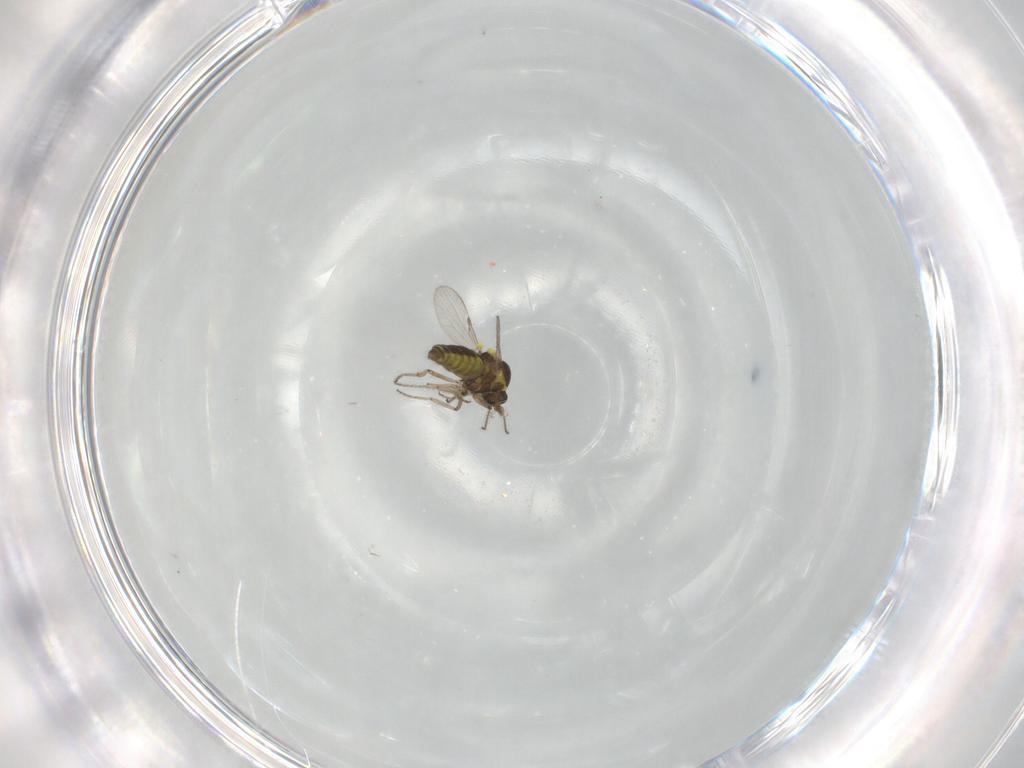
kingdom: Animalia
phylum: Arthropoda
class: Insecta
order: Diptera
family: Ceratopogonidae
